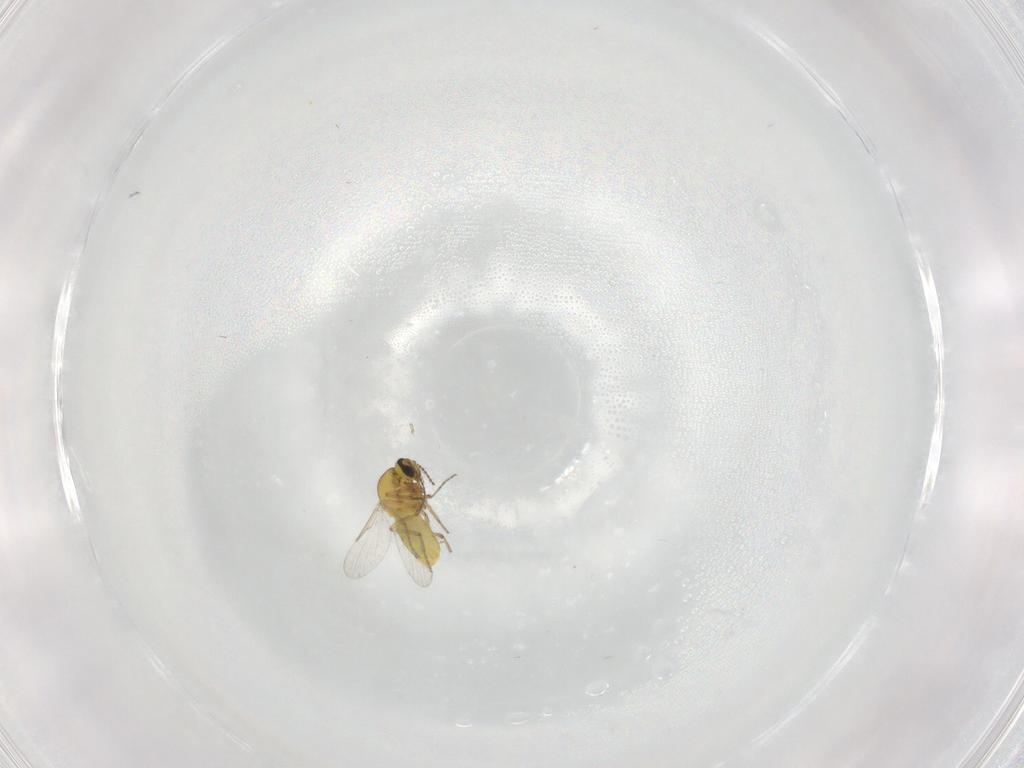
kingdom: Animalia
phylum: Arthropoda
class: Insecta
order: Diptera
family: Ceratopogonidae
